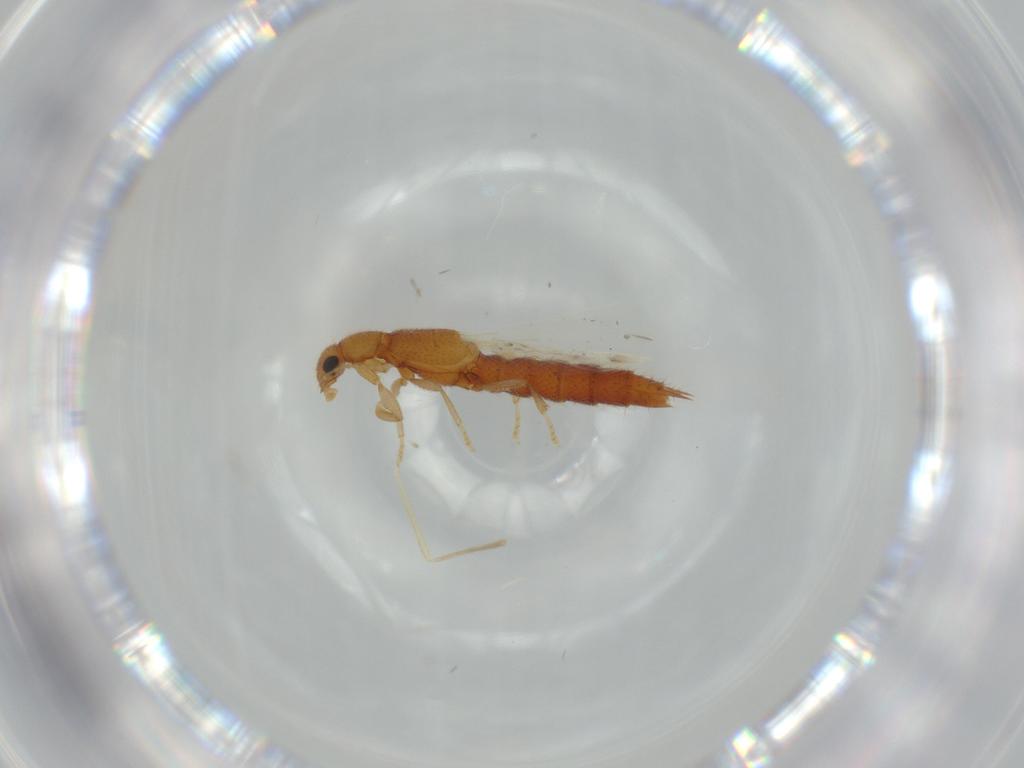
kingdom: Animalia
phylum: Arthropoda
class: Insecta
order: Coleoptera
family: Staphylinidae
